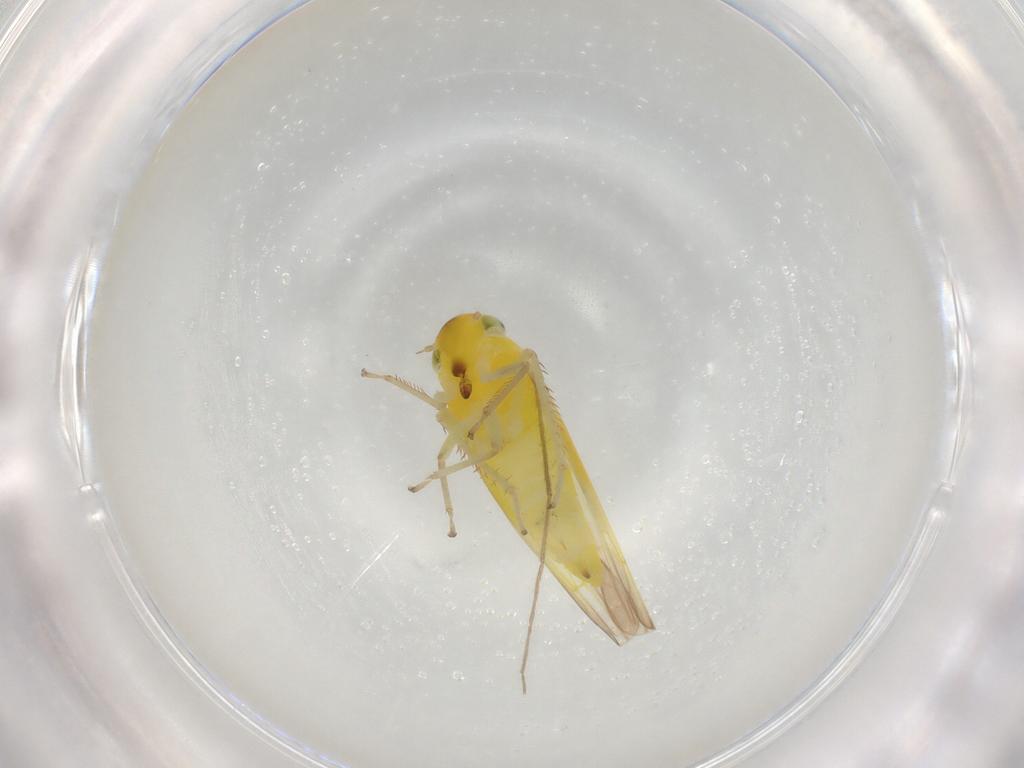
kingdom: Animalia
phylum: Arthropoda
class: Insecta
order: Hemiptera
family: Cicadellidae
